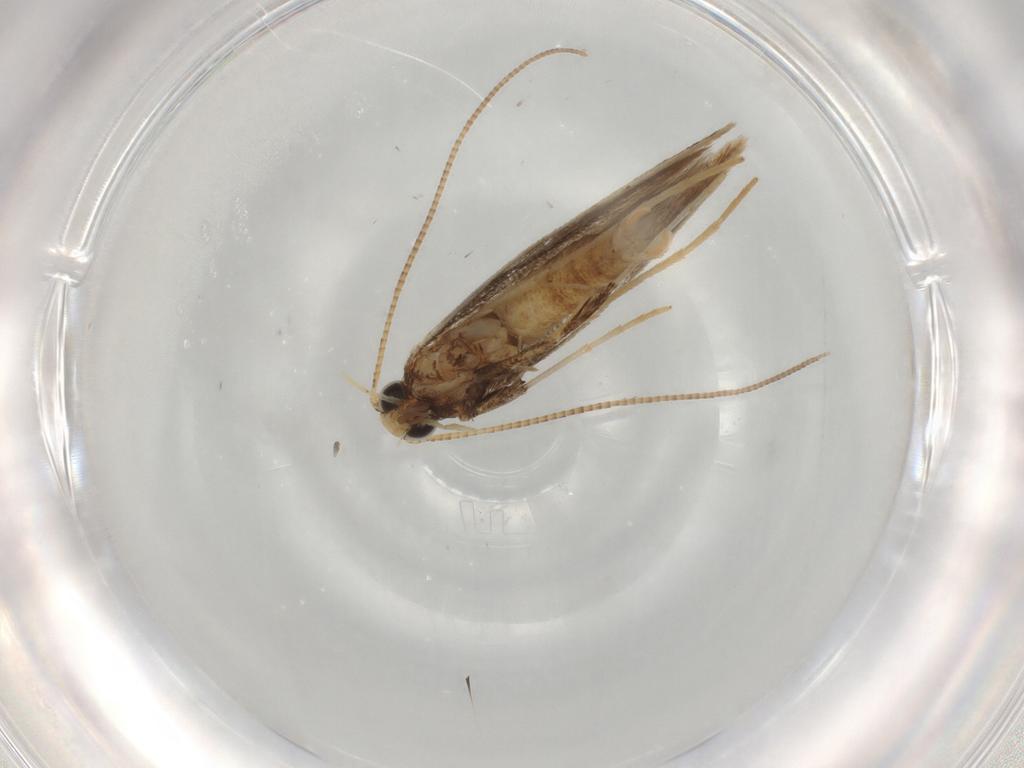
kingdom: Animalia
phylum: Arthropoda
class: Insecta
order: Lepidoptera
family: Gracillariidae
